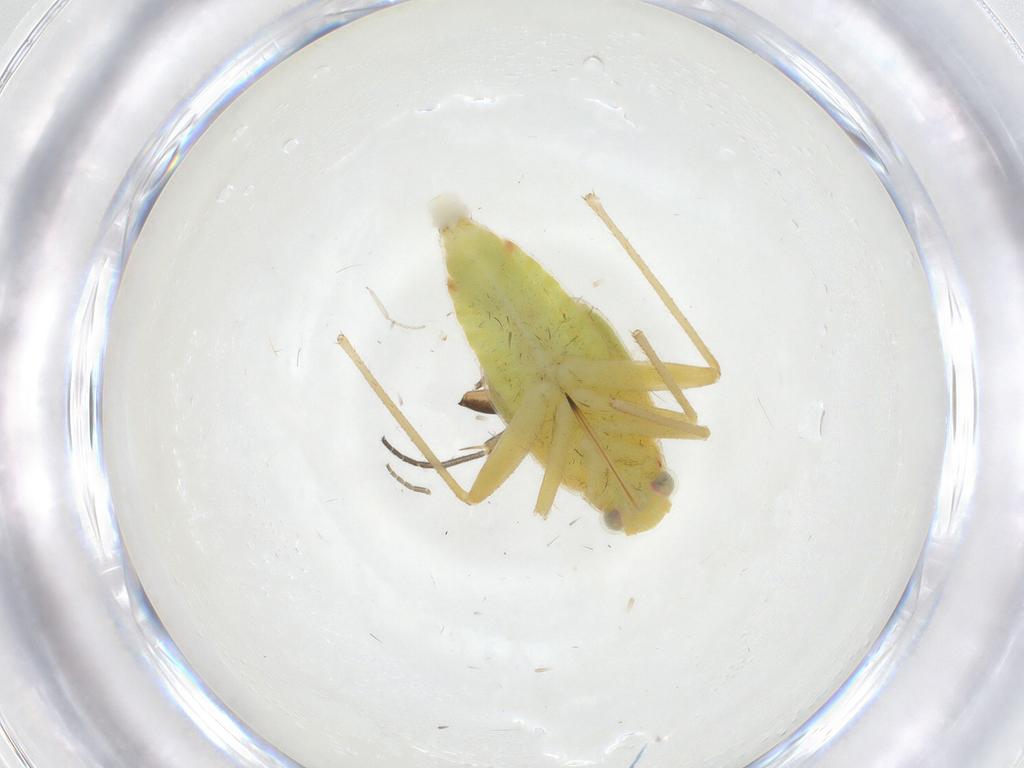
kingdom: Animalia
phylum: Arthropoda
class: Insecta
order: Hemiptera
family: Miridae
